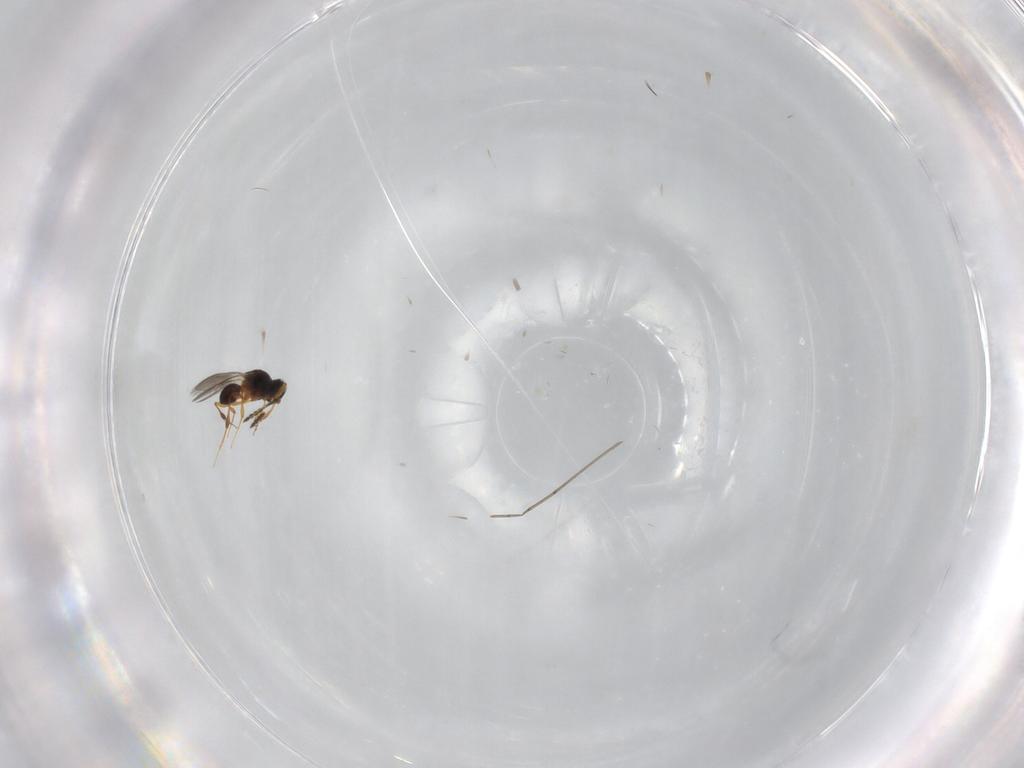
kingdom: Animalia
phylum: Arthropoda
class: Insecta
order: Hymenoptera
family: Platygastridae
